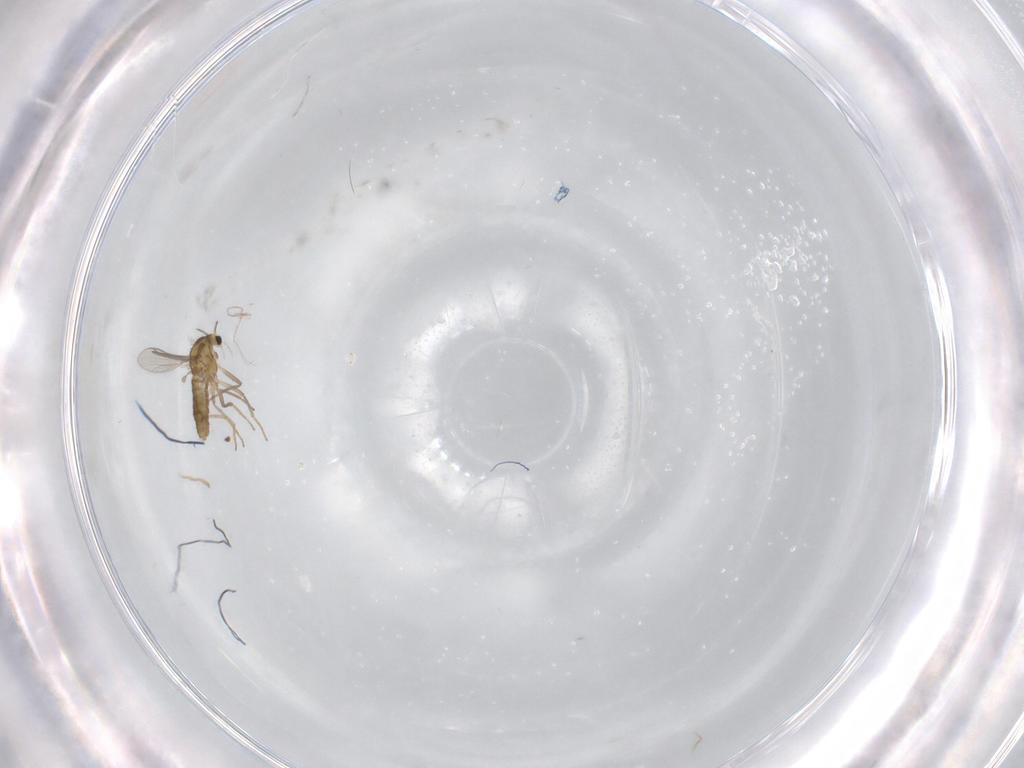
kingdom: Animalia
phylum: Arthropoda
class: Insecta
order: Diptera
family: Chironomidae
